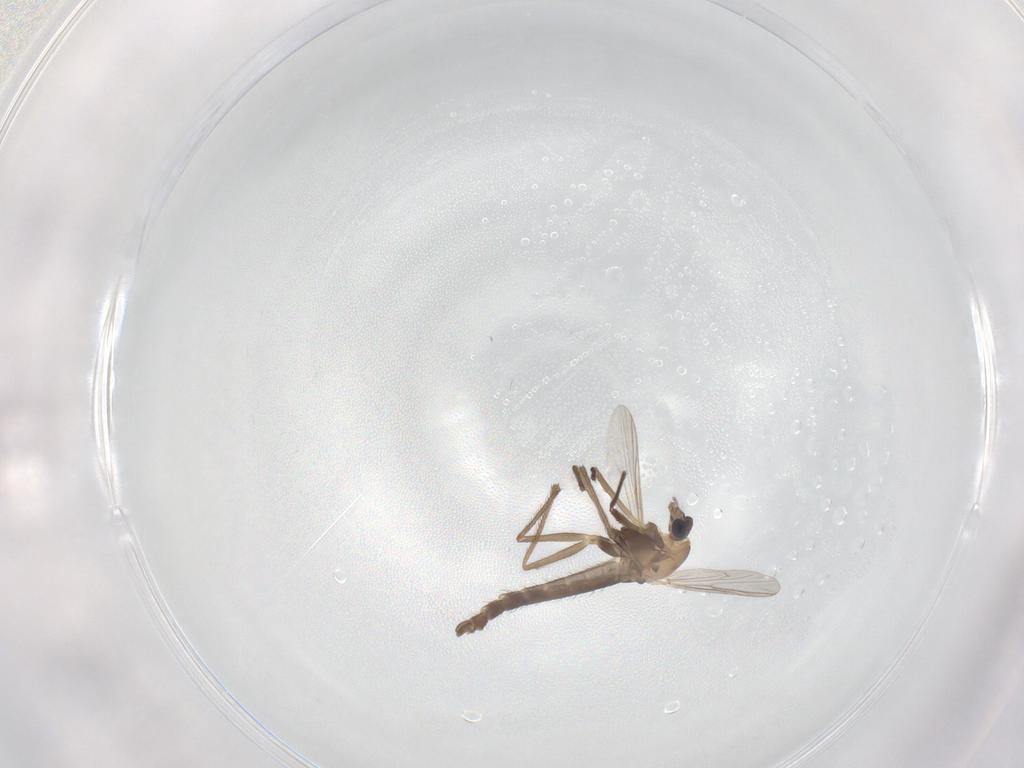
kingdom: Animalia
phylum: Arthropoda
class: Insecta
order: Diptera
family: Chironomidae
